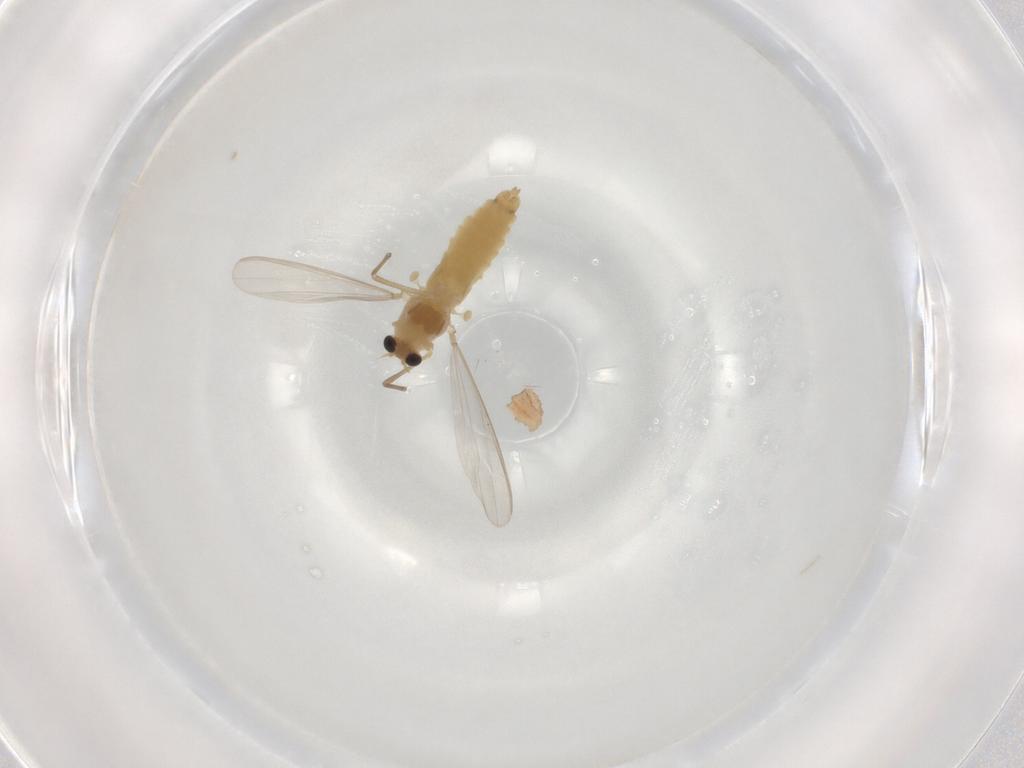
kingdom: Animalia
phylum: Arthropoda
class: Insecta
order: Diptera
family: Chironomidae
